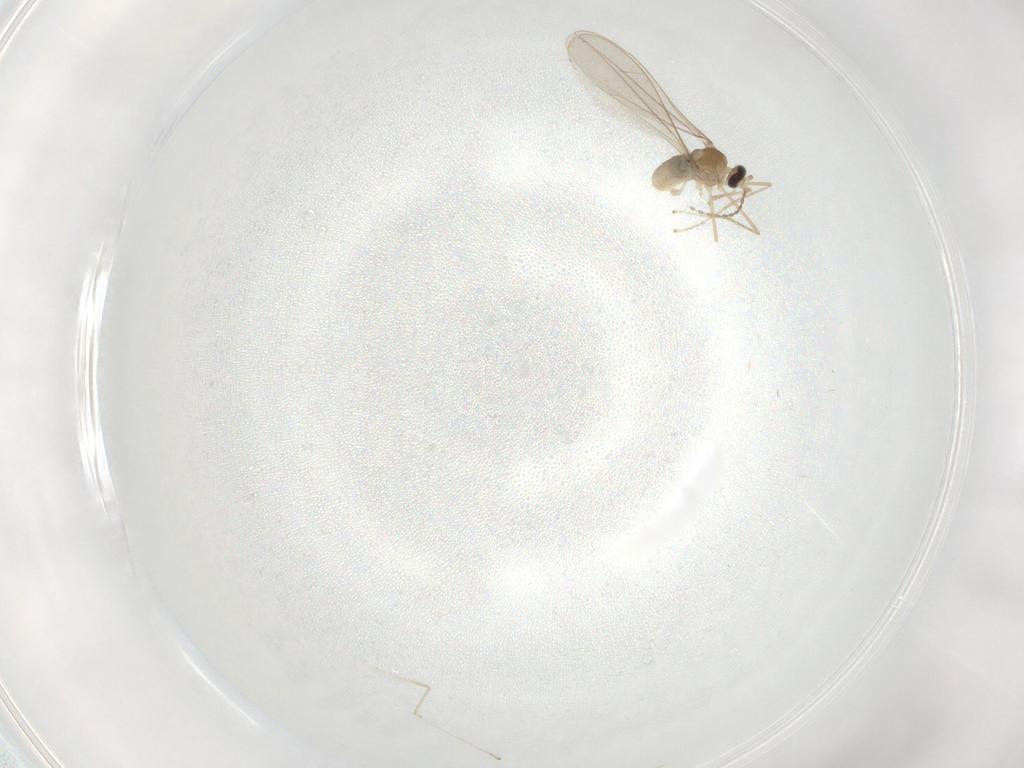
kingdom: Animalia
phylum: Arthropoda
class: Insecta
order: Diptera
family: Cecidomyiidae
